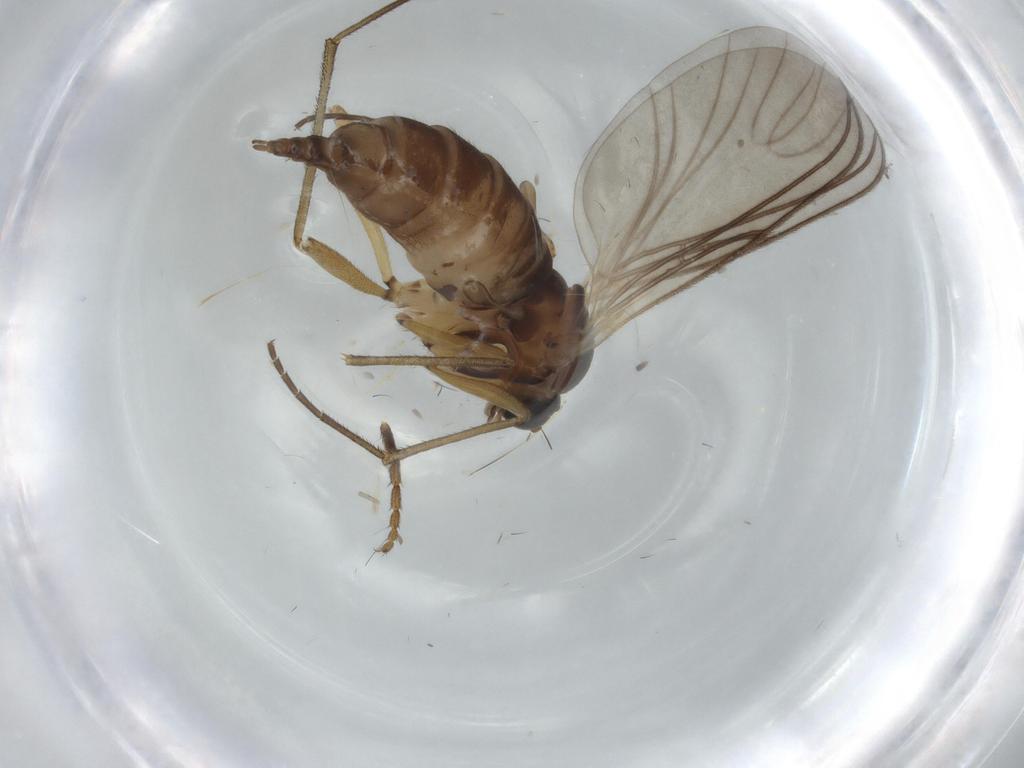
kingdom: Animalia
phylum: Arthropoda
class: Insecta
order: Diptera
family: Sciaridae
